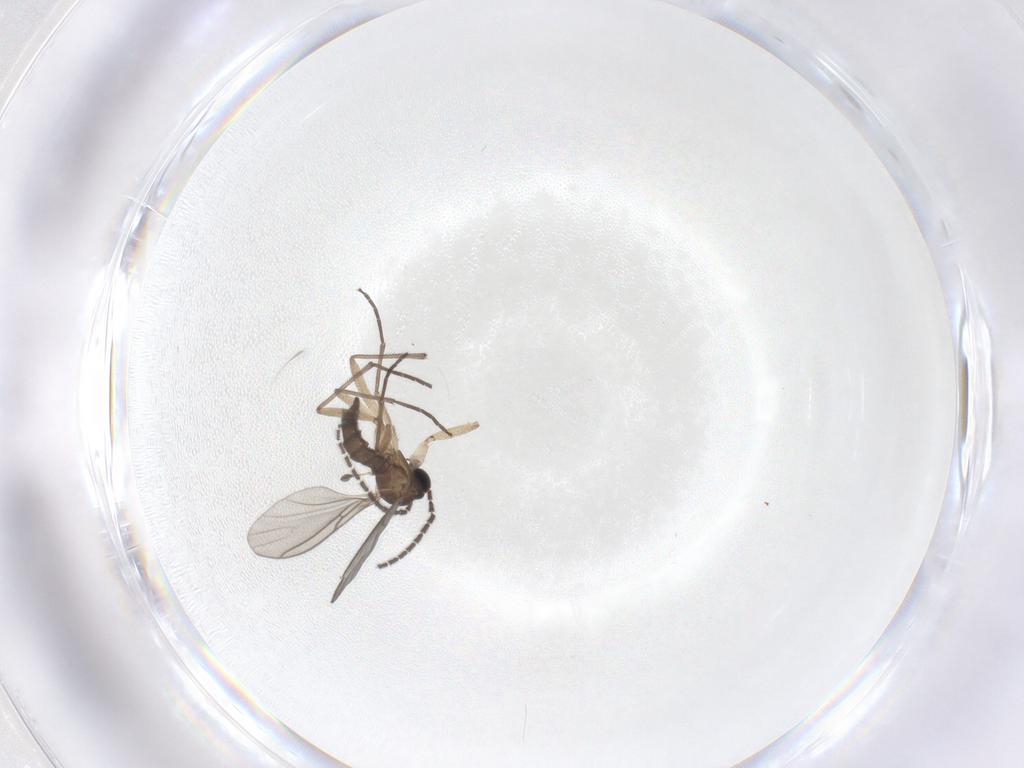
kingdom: Animalia
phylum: Arthropoda
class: Insecta
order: Diptera
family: Sciaridae
